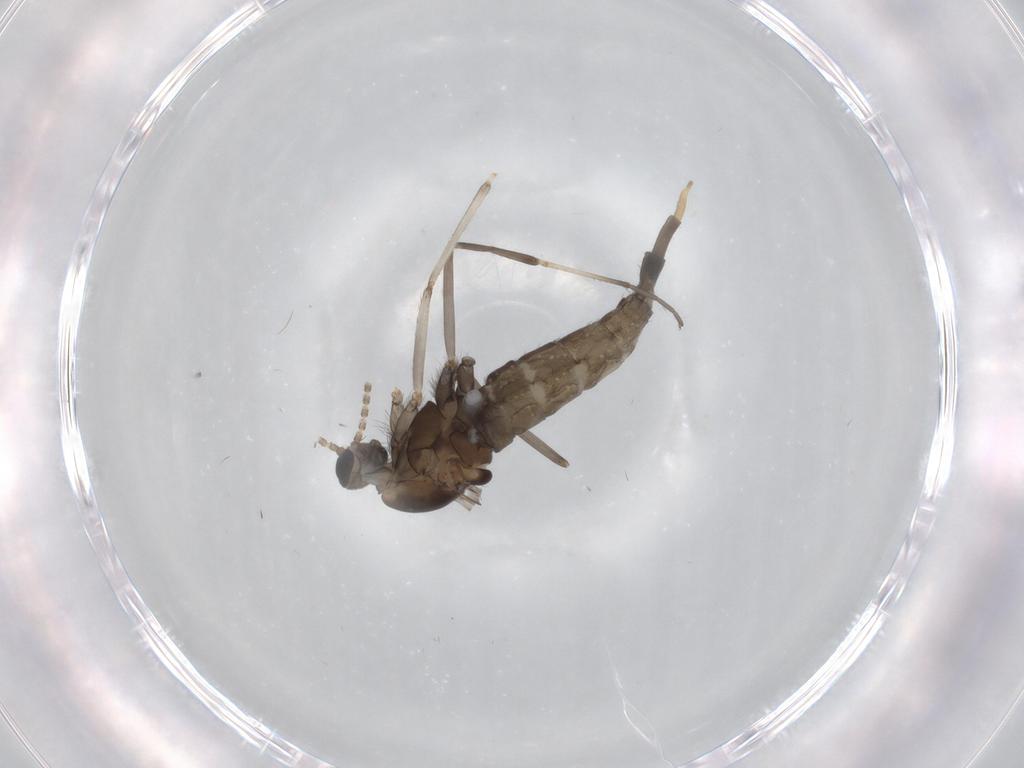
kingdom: Animalia
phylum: Arthropoda
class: Insecta
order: Diptera
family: Cecidomyiidae
